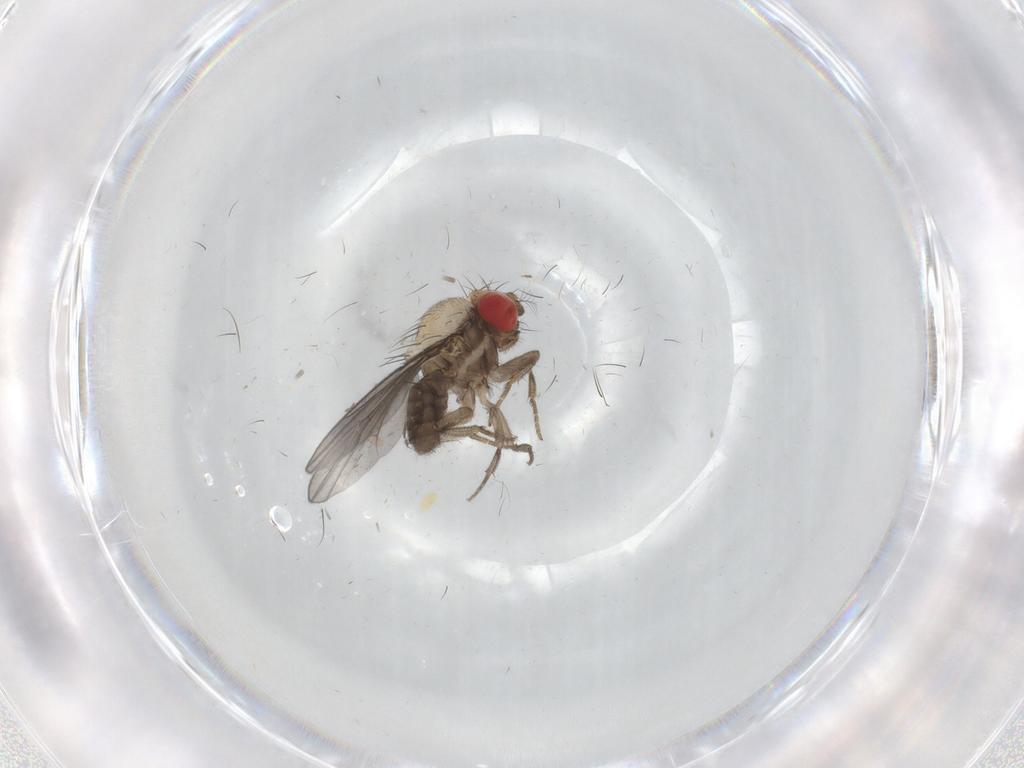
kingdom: Animalia
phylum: Arthropoda
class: Insecta
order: Diptera
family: Drosophilidae
